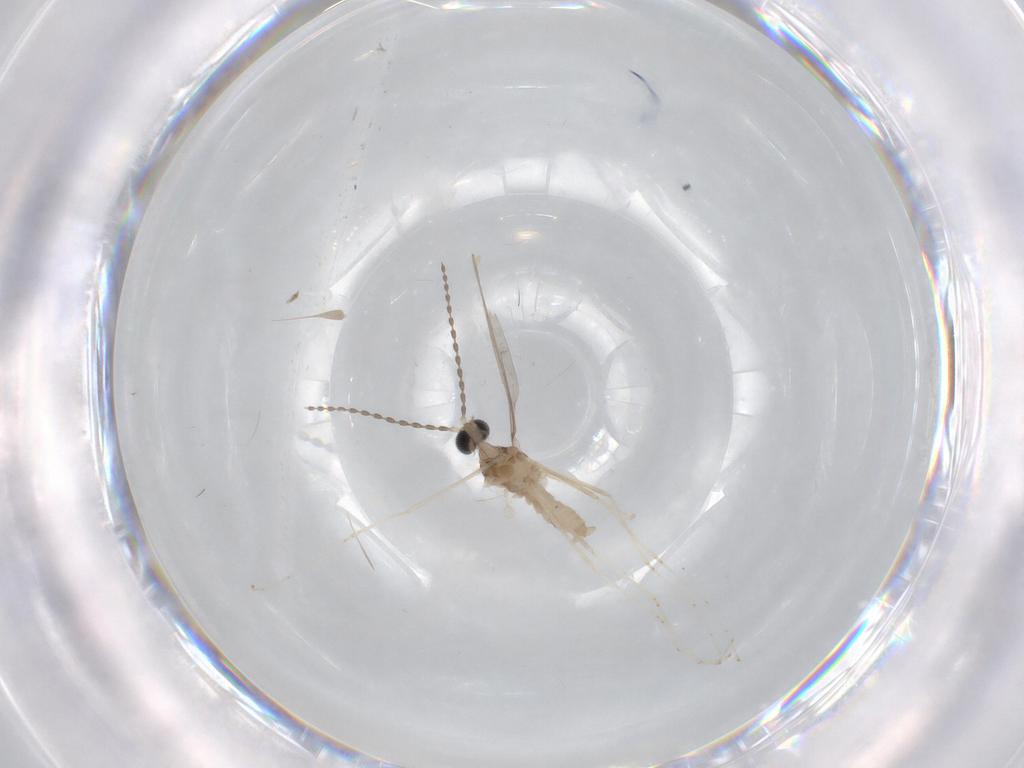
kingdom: Animalia
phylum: Arthropoda
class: Insecta
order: Diptera
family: Cecidomyiidae
